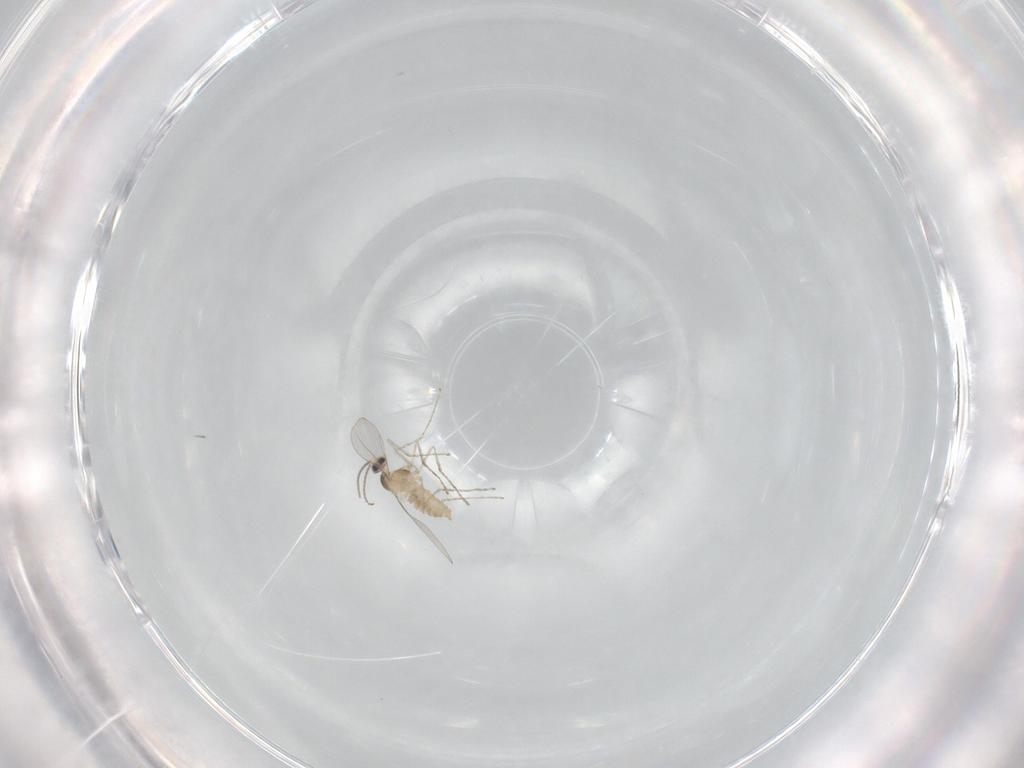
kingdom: Animalia
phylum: Arthropoda
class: Insecta
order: Diptera
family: Cecidomyiidae
